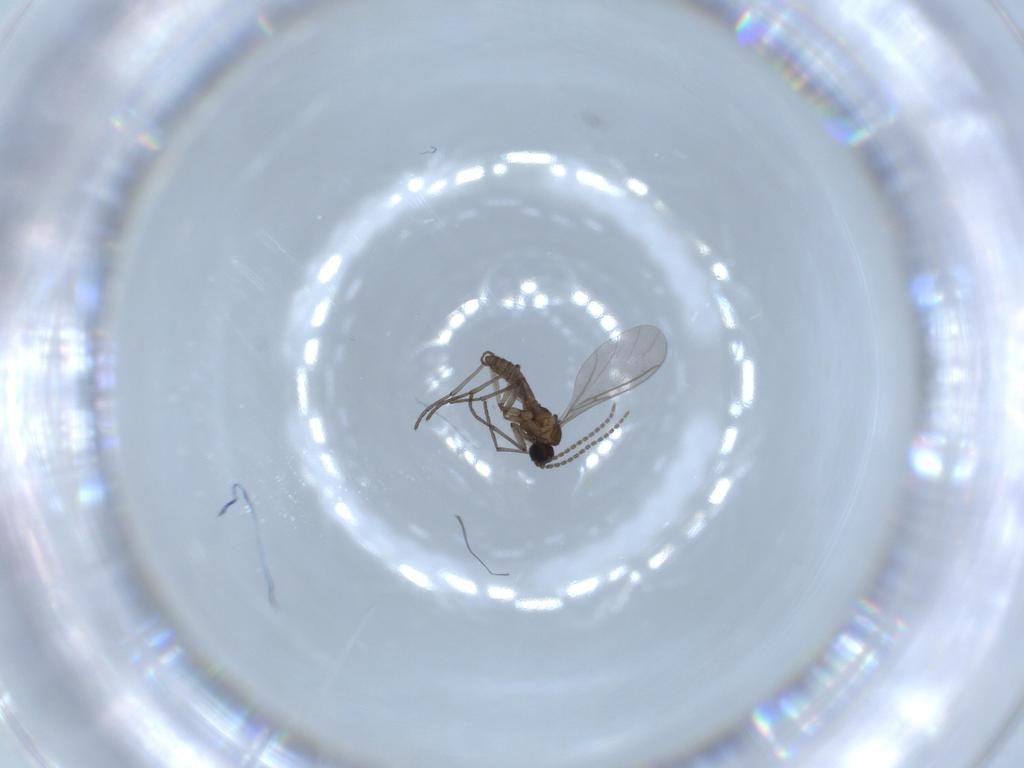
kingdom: Animalia
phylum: Arthropoda
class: Insecta
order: Diptera
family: Sciaridae
